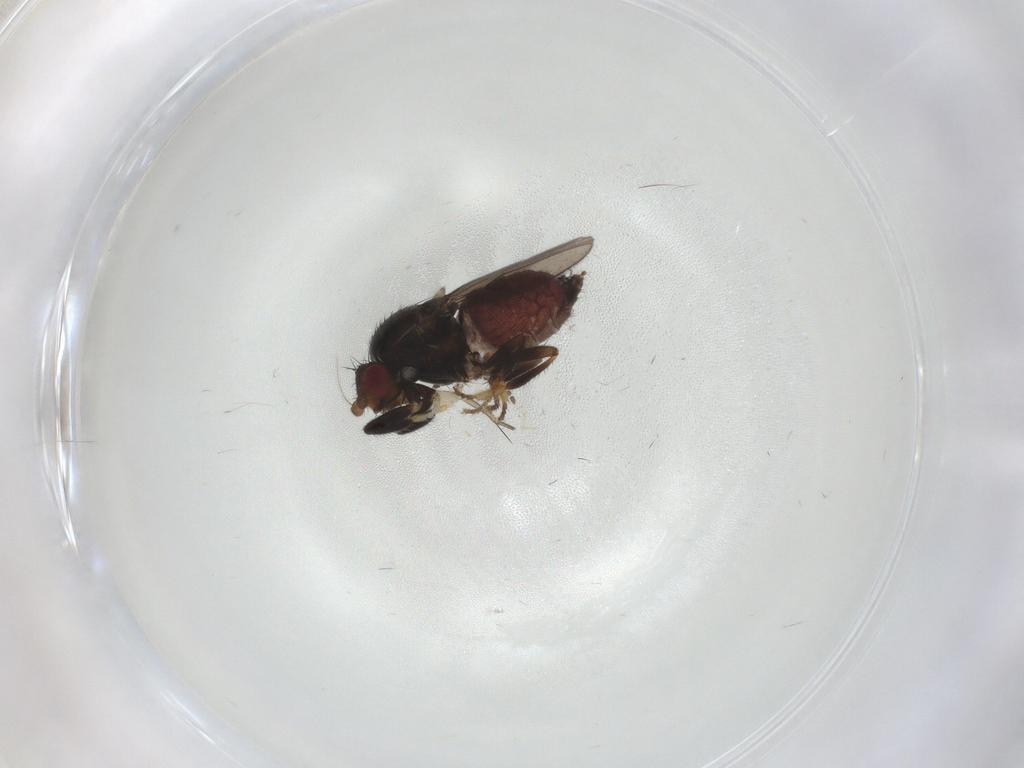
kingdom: Animalia
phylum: Arthropoda
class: Insecta
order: Diptera
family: Sphaeroceridae
